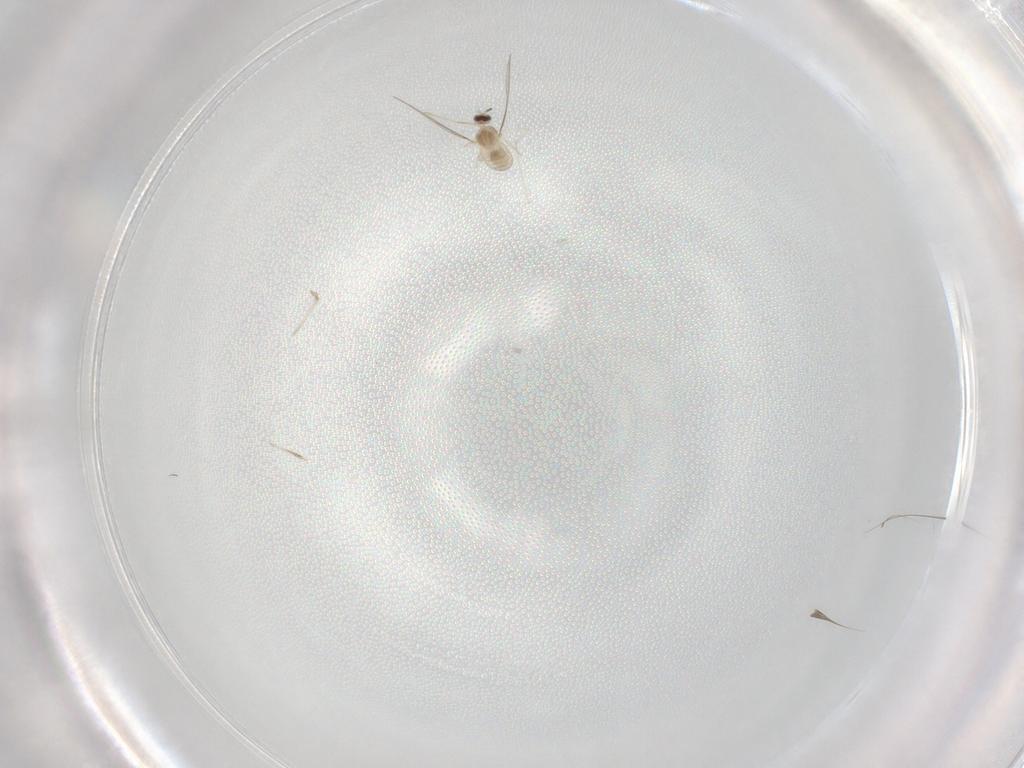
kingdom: Animalia
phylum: Arthropoda
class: Insecta
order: Diptera
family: Cecidomyiidae
